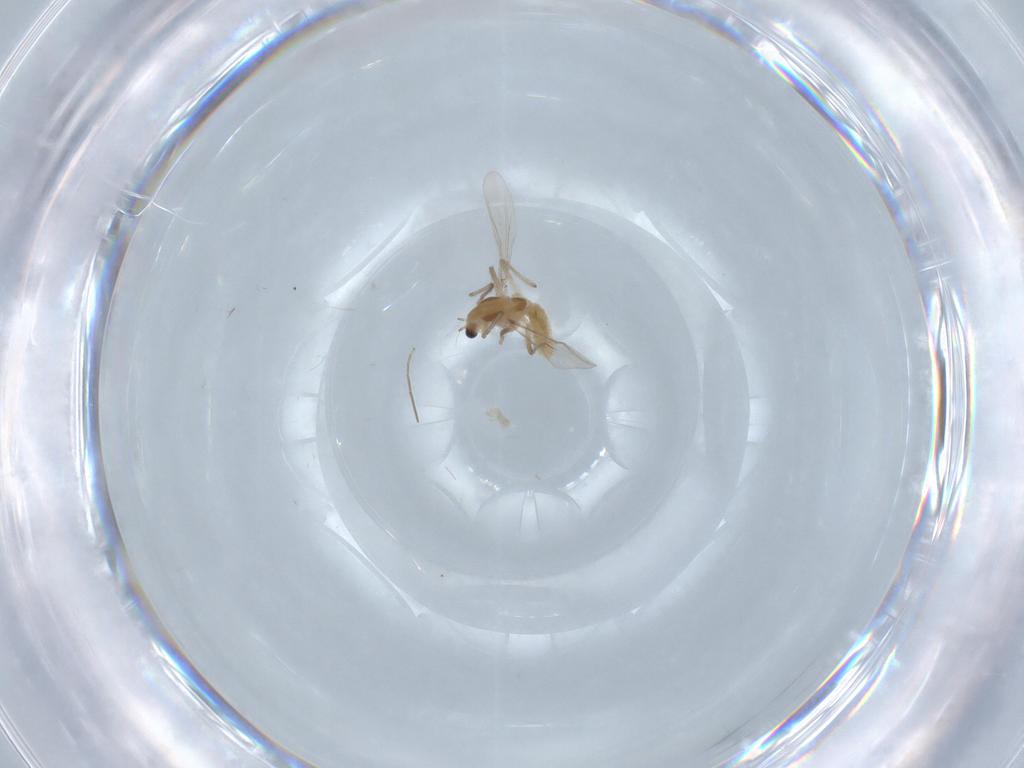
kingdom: Animalia
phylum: Arthropoda
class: Insecta
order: Diptera
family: Chironomidae
